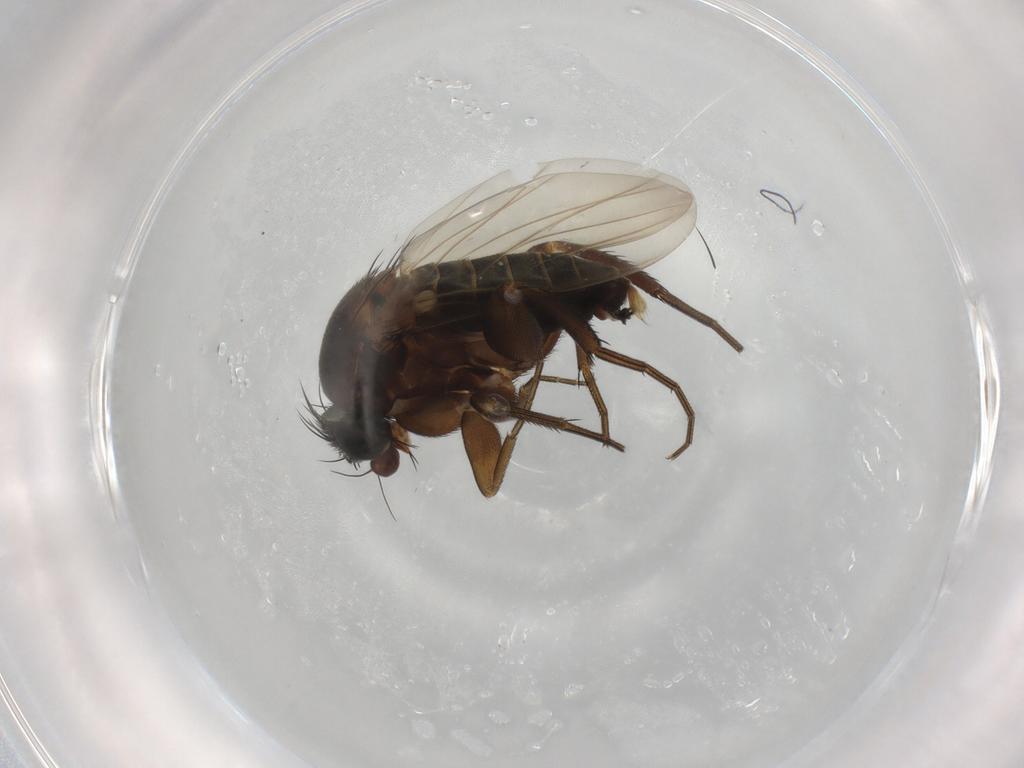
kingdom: Animalia
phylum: Arthropoda
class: Insecta
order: Diptera
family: Phoridae
